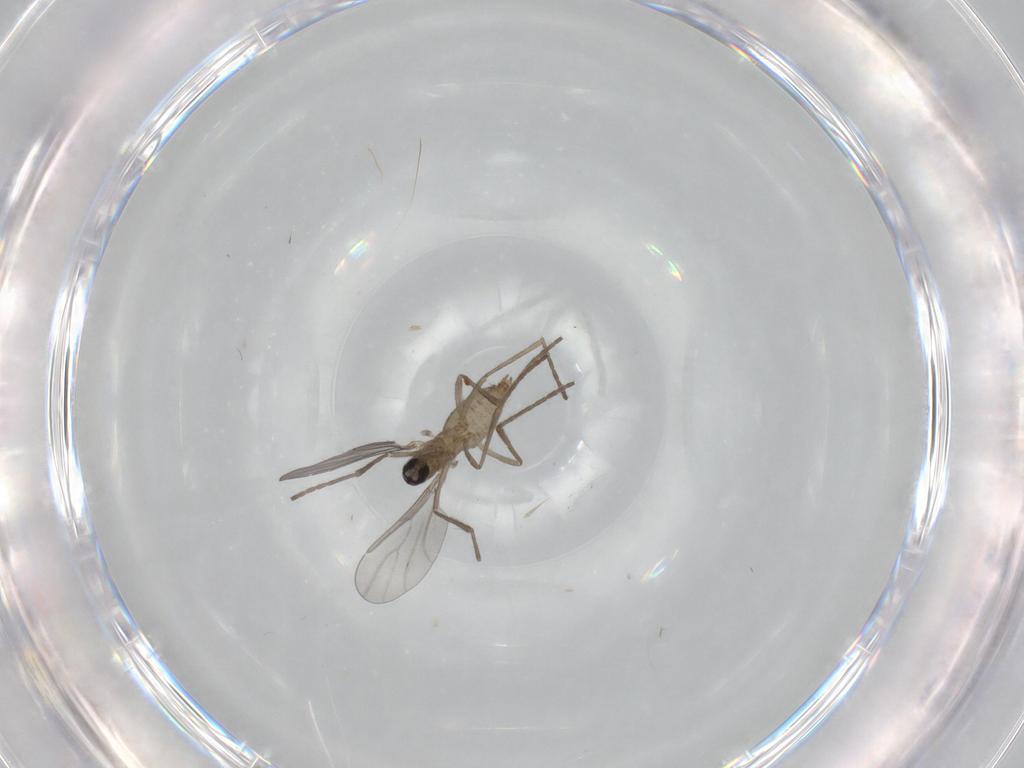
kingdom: Animalia
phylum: Arthropoda
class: Insecta
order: Diptera
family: Cecidomyiidae
